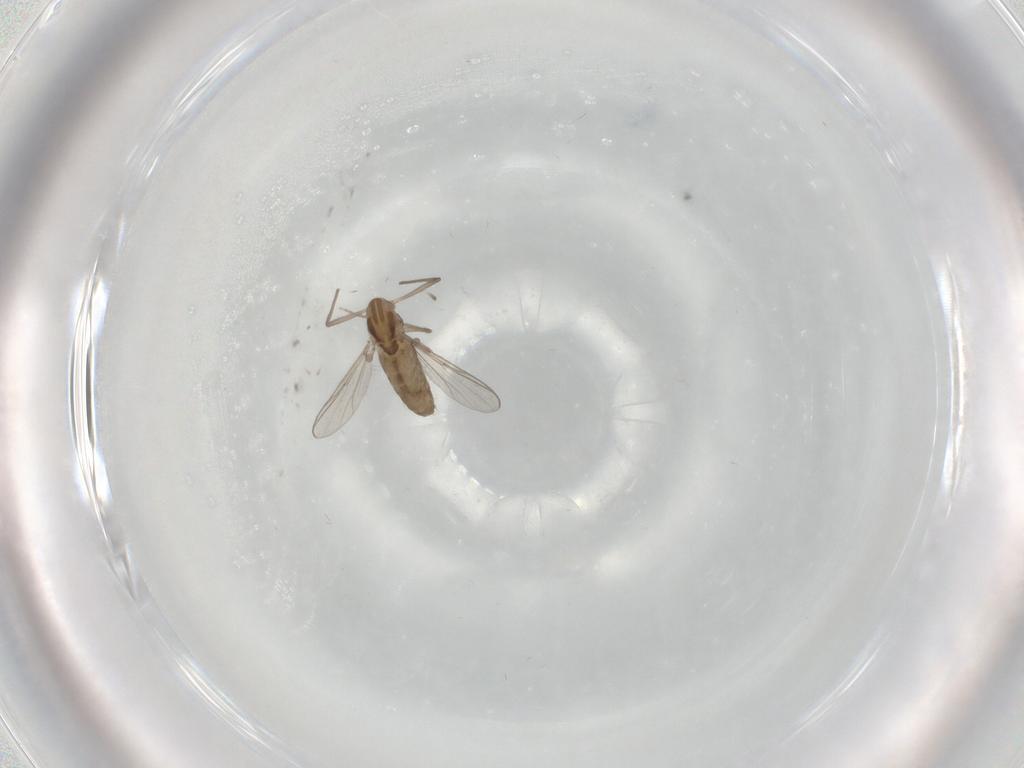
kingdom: Animalia
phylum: Arthropoda
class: Insecta
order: Diptera
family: Chironomidae
